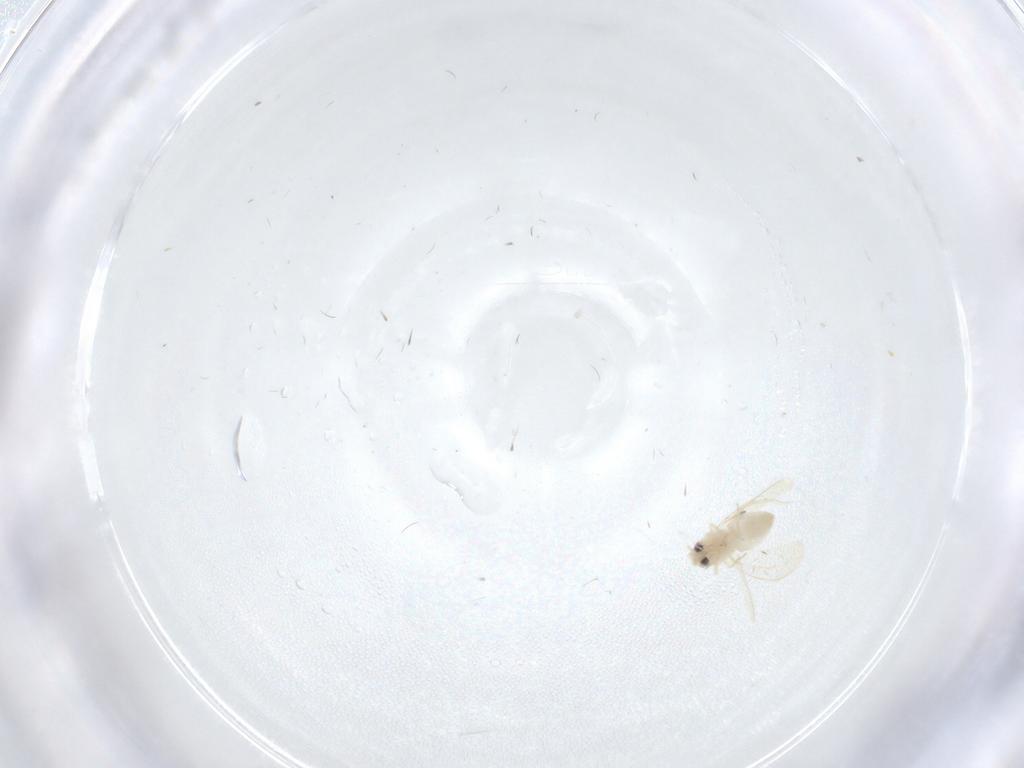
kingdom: Animalia
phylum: Arthropoda
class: Insecta
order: Hemiptera
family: Aleyrodidae
